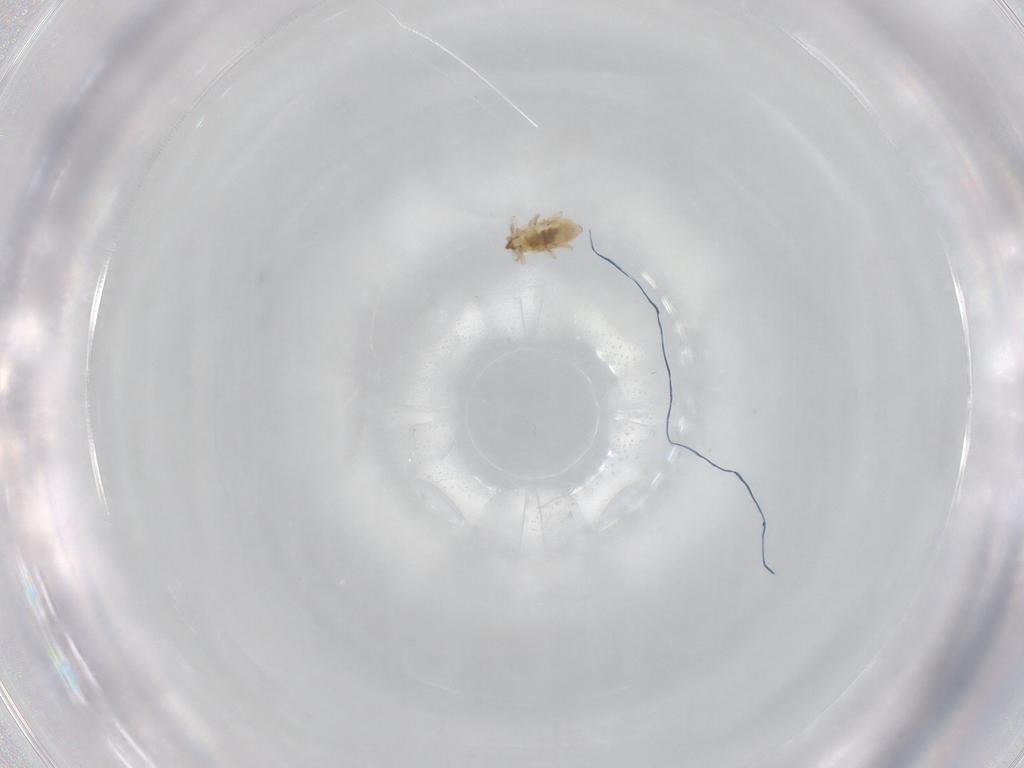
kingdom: Animalia
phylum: Arthropoda
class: Insecta
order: Neuroptera
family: Coniopterygidae
